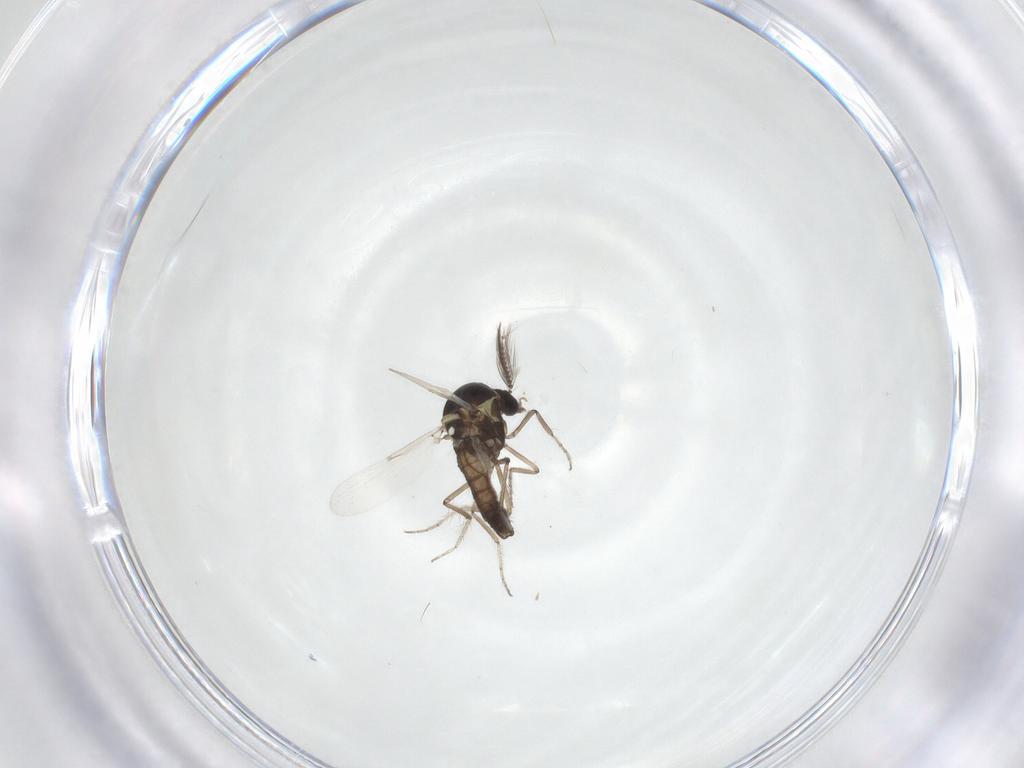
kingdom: Animalia
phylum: Arthropoda
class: Insecta
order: Diptera
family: Ceratopogonidae
